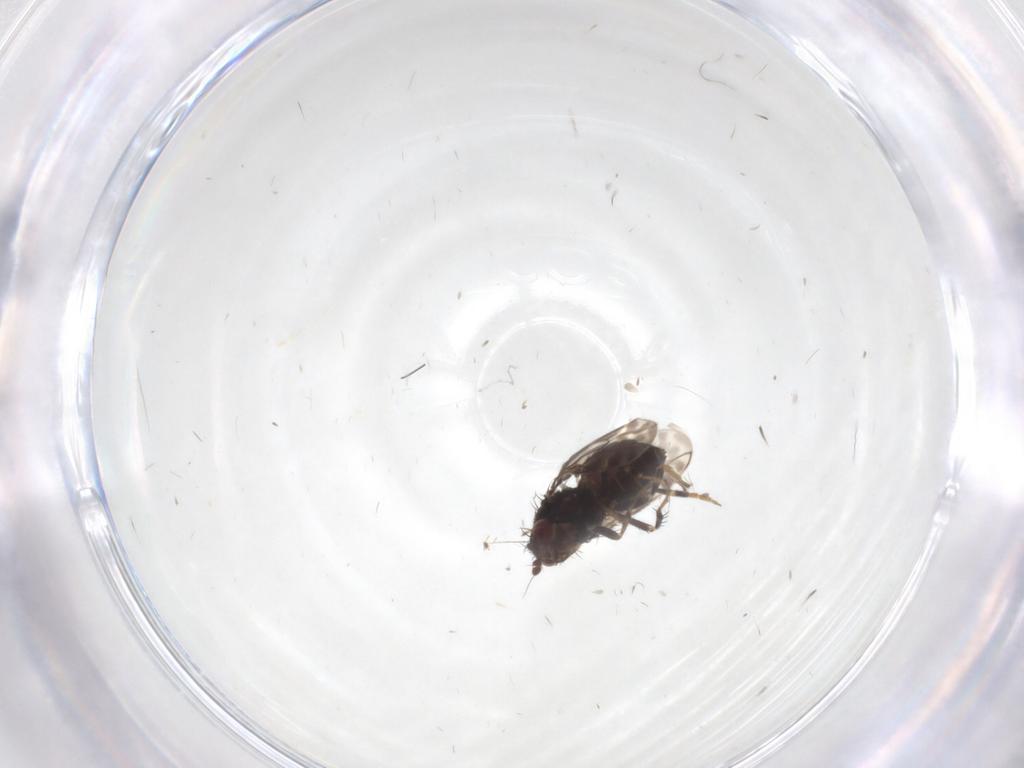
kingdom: Animalia
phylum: Arthropoda
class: Insecta
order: Diptera
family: Sphaeroceridae
